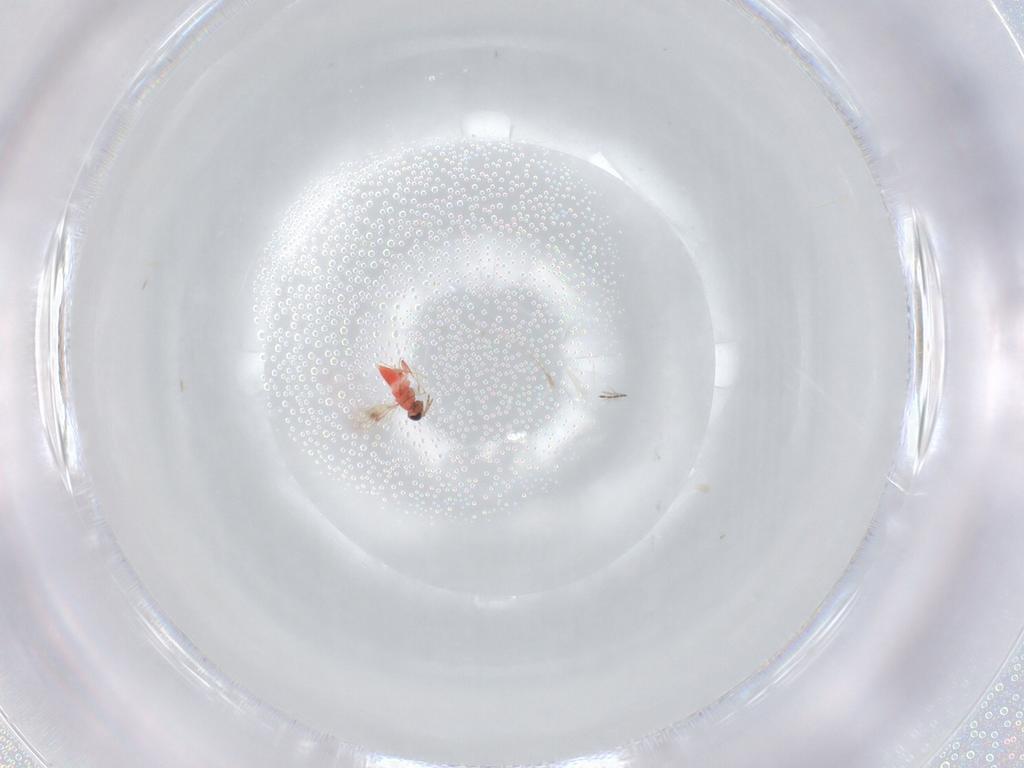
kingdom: Animalia
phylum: Arthropoda
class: Insecta
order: Hymenoptera
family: Trichogrammatidae
